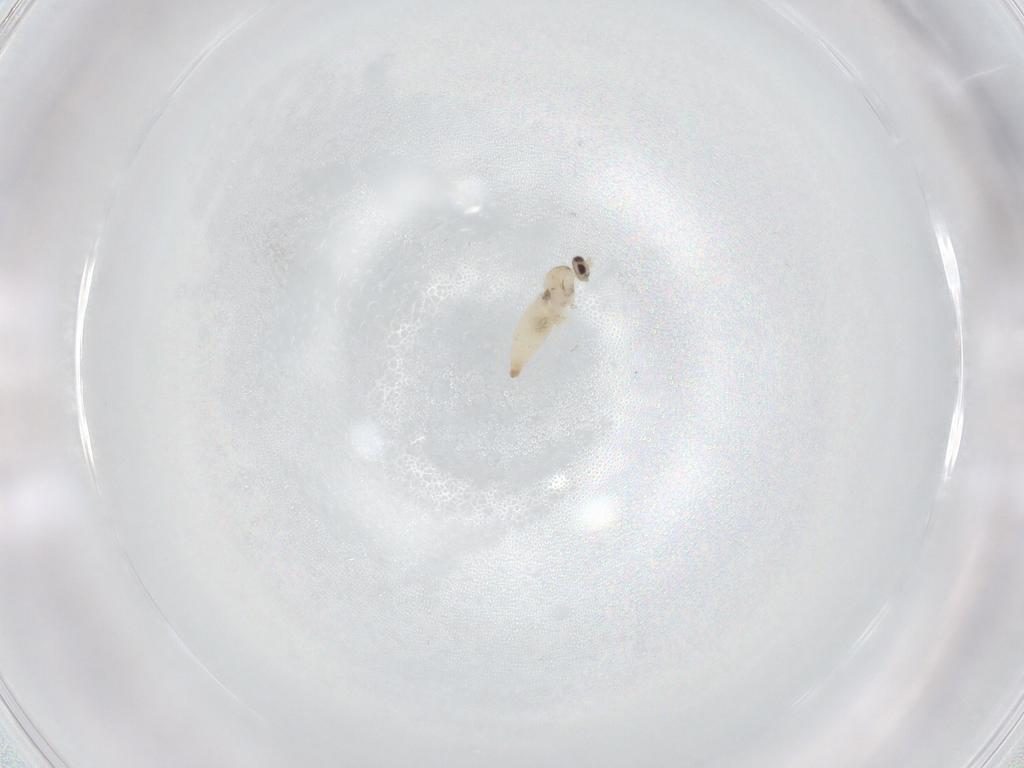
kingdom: Animalia
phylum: Arthropoda
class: Insecta
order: Diptera
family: Cecidomyiidae
